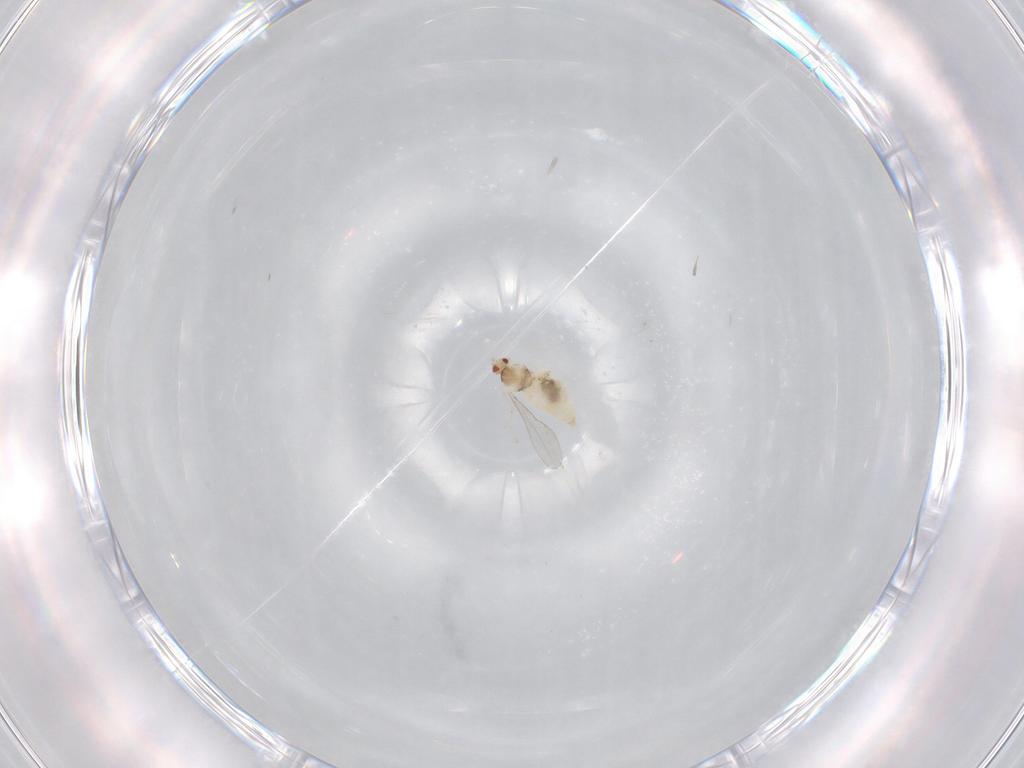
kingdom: Animalia
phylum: Arthropoda
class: Insecta
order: Diptera
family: Cecidomyiidae
